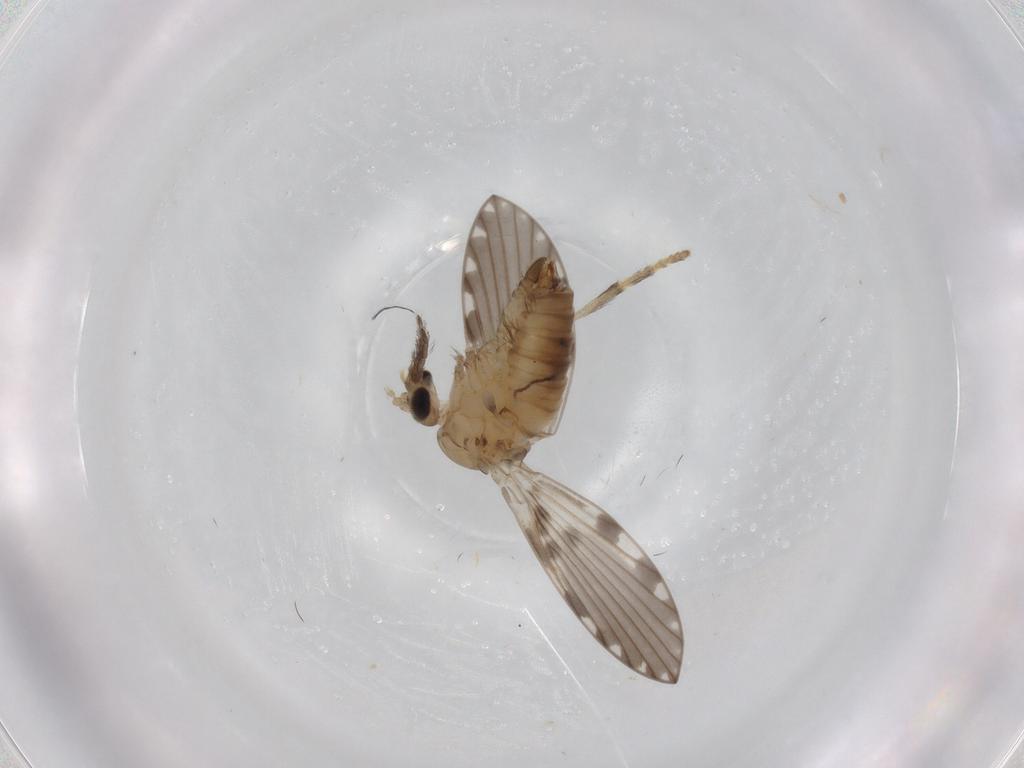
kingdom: Animalia
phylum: Arthropoda
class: Insecta
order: Diptera
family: Psychodidae
